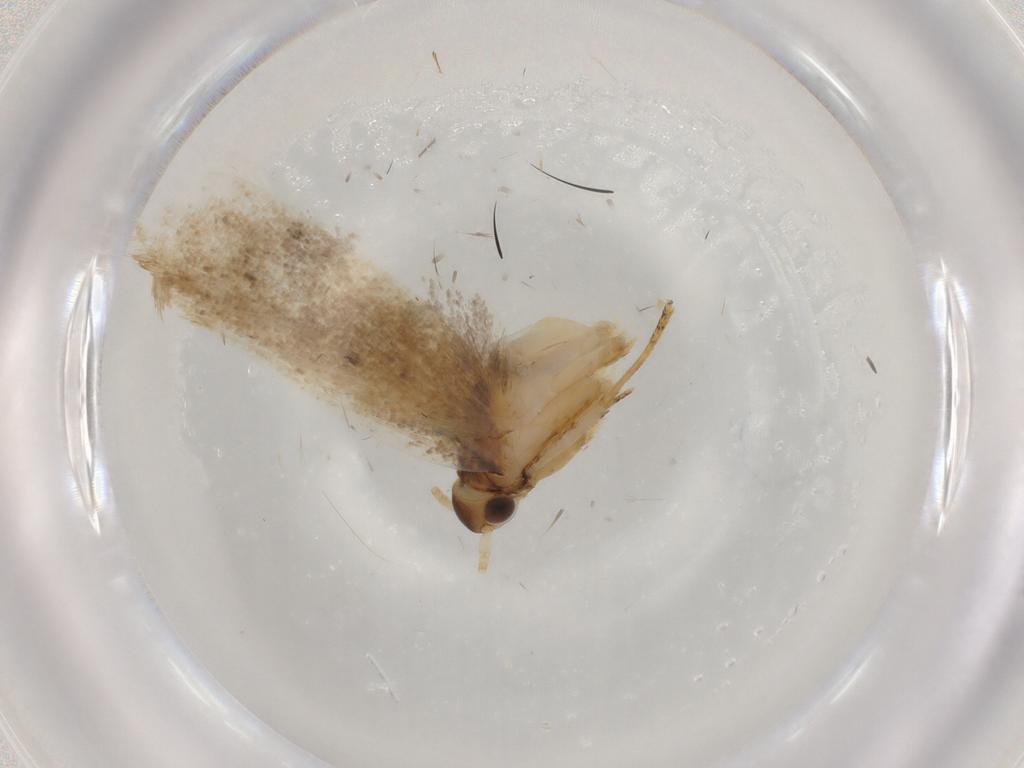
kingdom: Animalia
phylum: Arthropoda
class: Insecta
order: Lepidoptera
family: Lecithoceridae
